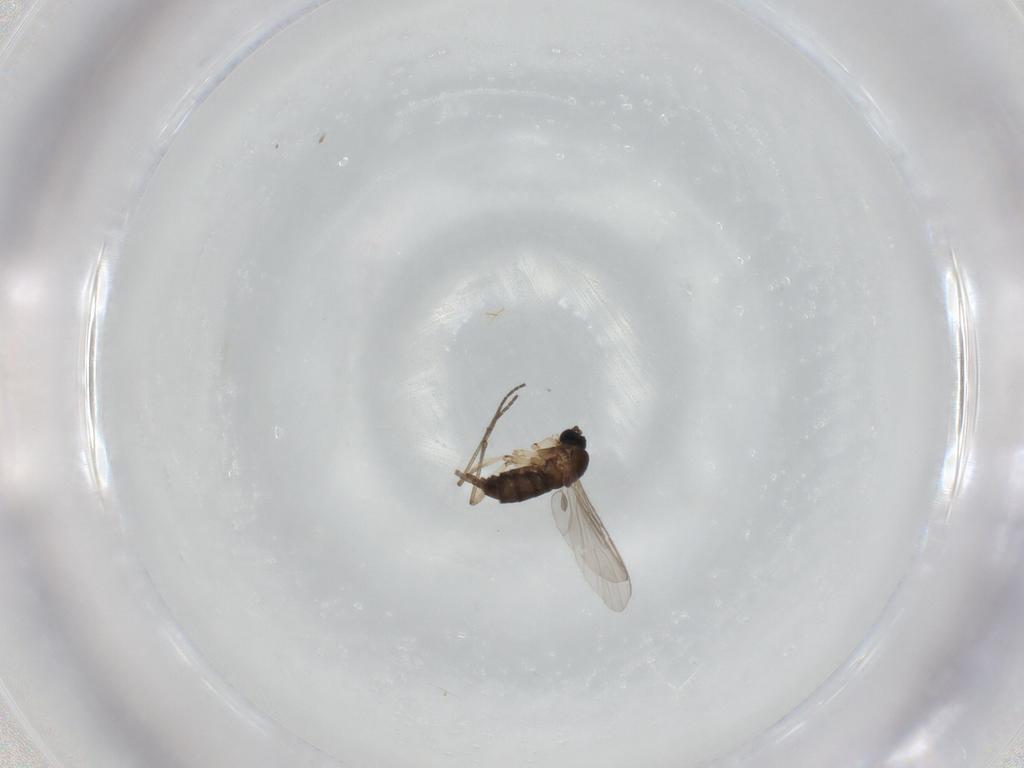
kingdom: Animalia
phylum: Arthropoda
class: Insecta
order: Diptera
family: Sciaridae
